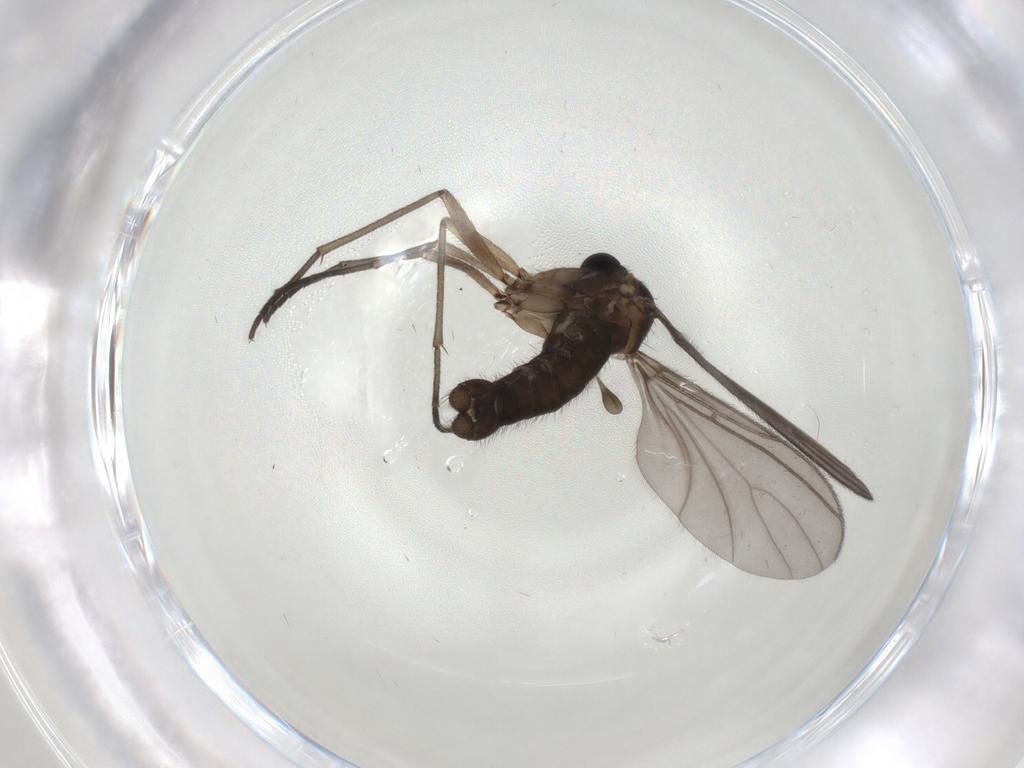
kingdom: Animalia
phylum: Arthropoda
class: Insecta
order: Diptera
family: Sciaridae
